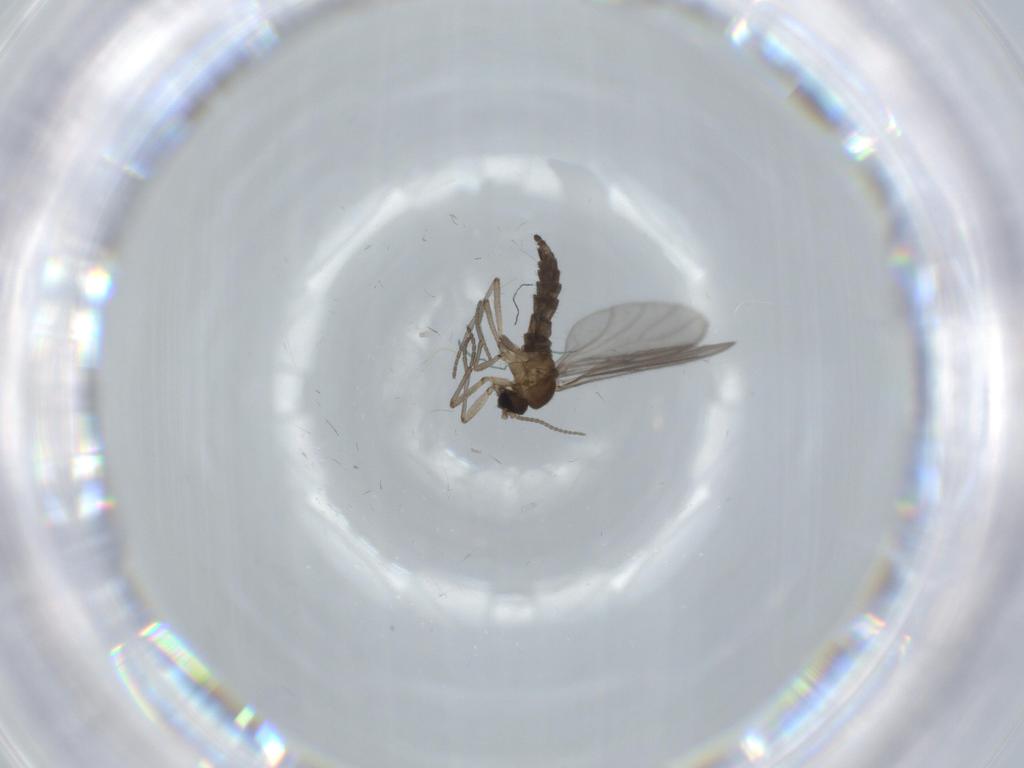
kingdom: Animalia
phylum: Arthropoda
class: Insecta
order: Diptera
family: Sciaridae
